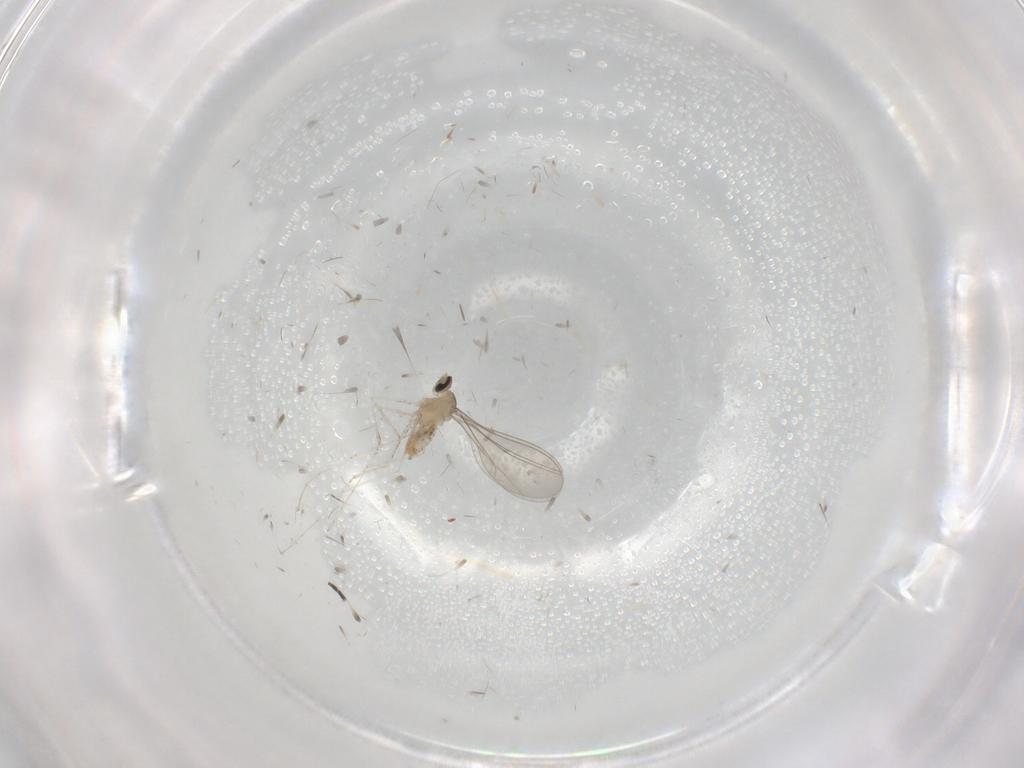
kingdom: Animalia
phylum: Arthropoda
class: Insecta
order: Diptera
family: Cecidomyiidae
